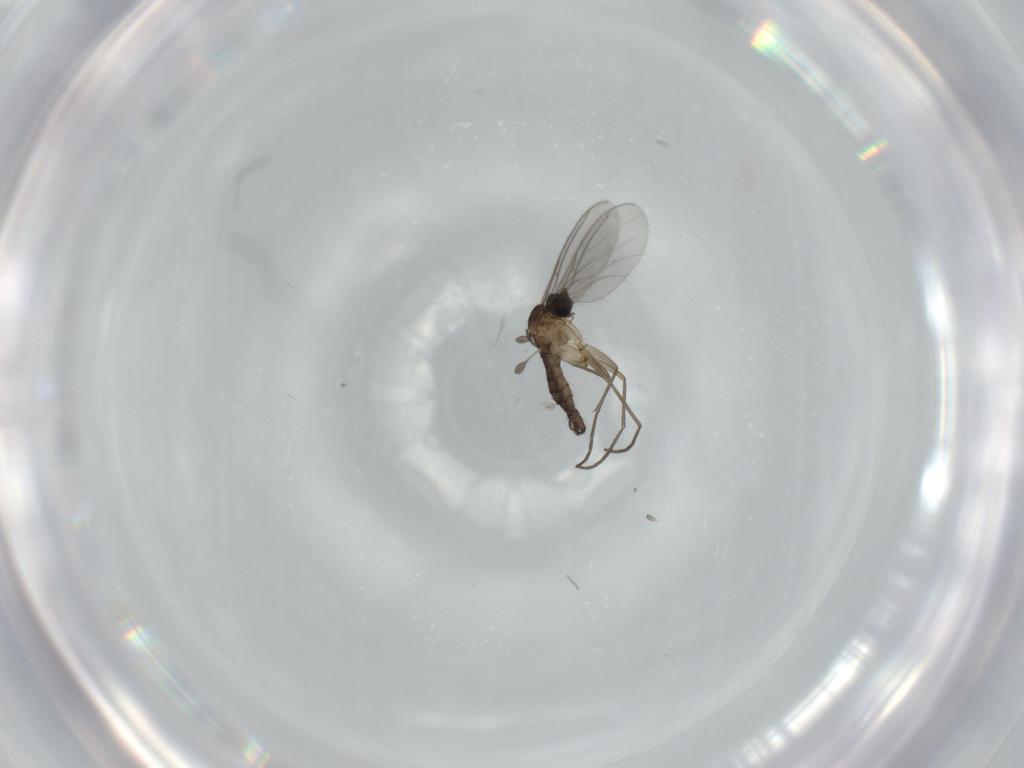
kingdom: Animalia
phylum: Arthropoda
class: Insecta
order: Diptera
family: Sciaridae
